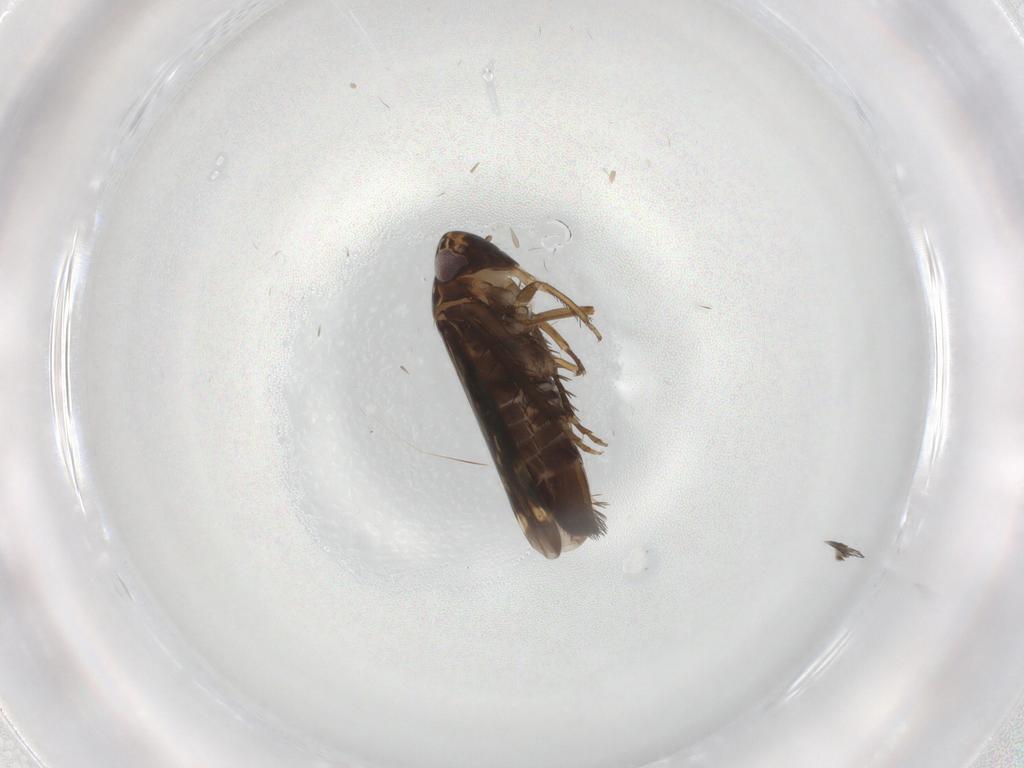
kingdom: Animalia
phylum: Arthropoda
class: Insecta
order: Hemiptera
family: Cicadellidae
